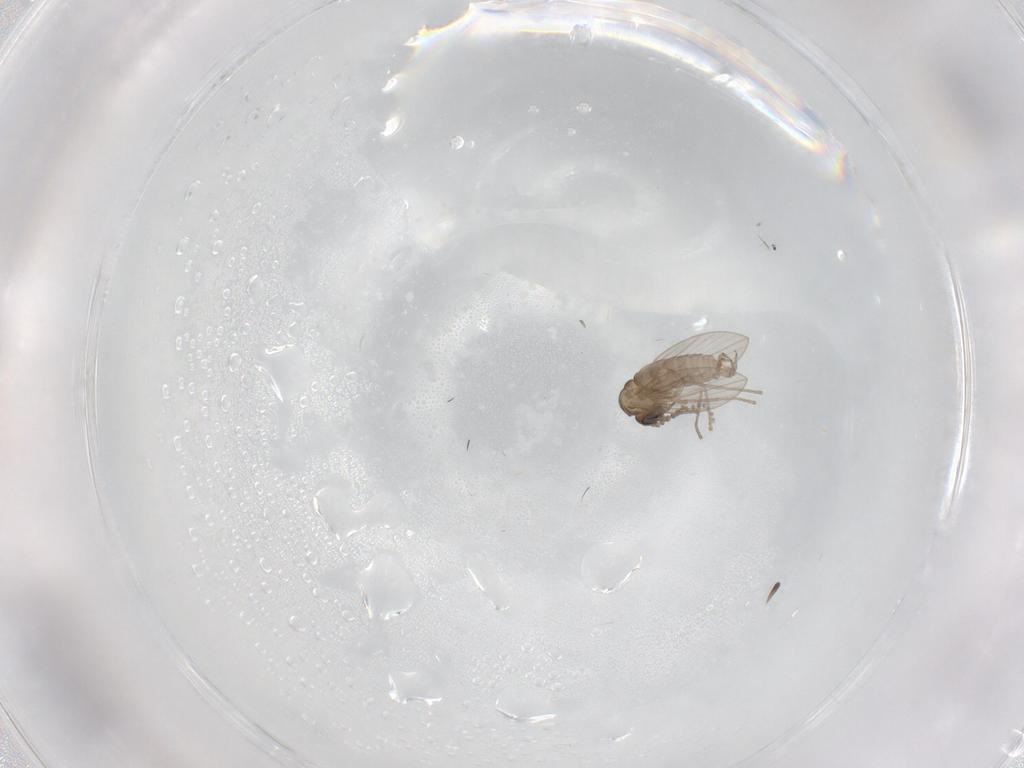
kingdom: Animalia
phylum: Arthropoda
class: Insecta
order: Diptera
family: Psychodidae
